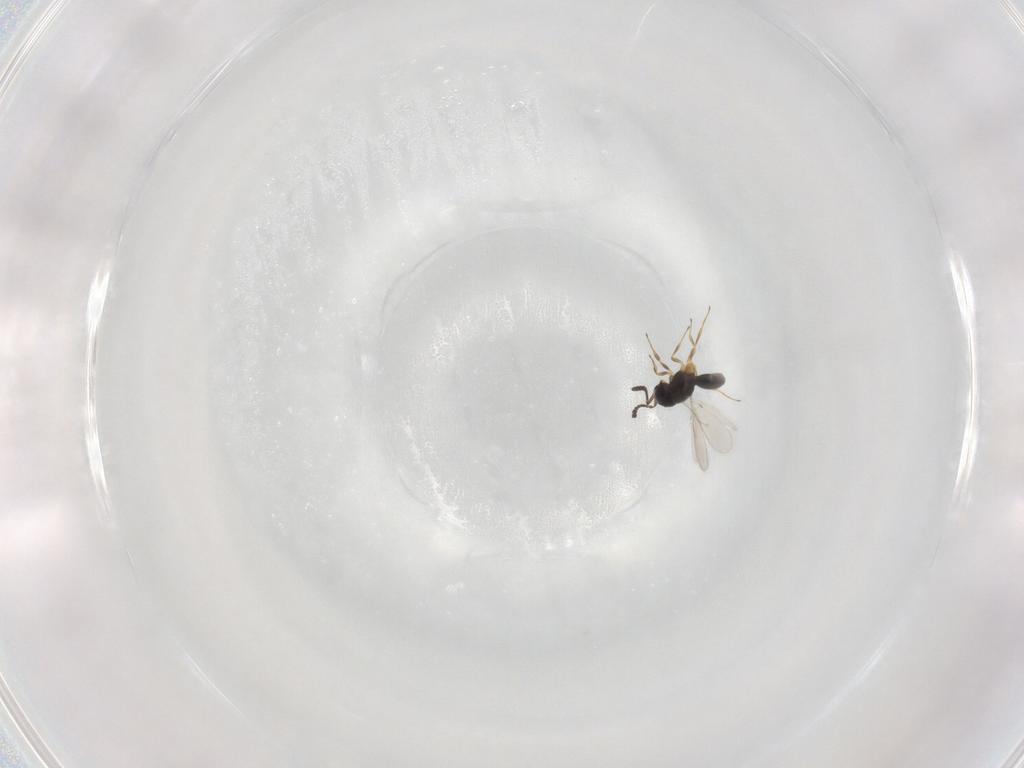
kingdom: Animalia
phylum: Arthropoda
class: Insecta
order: Hymenoptera
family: Scelionidae
